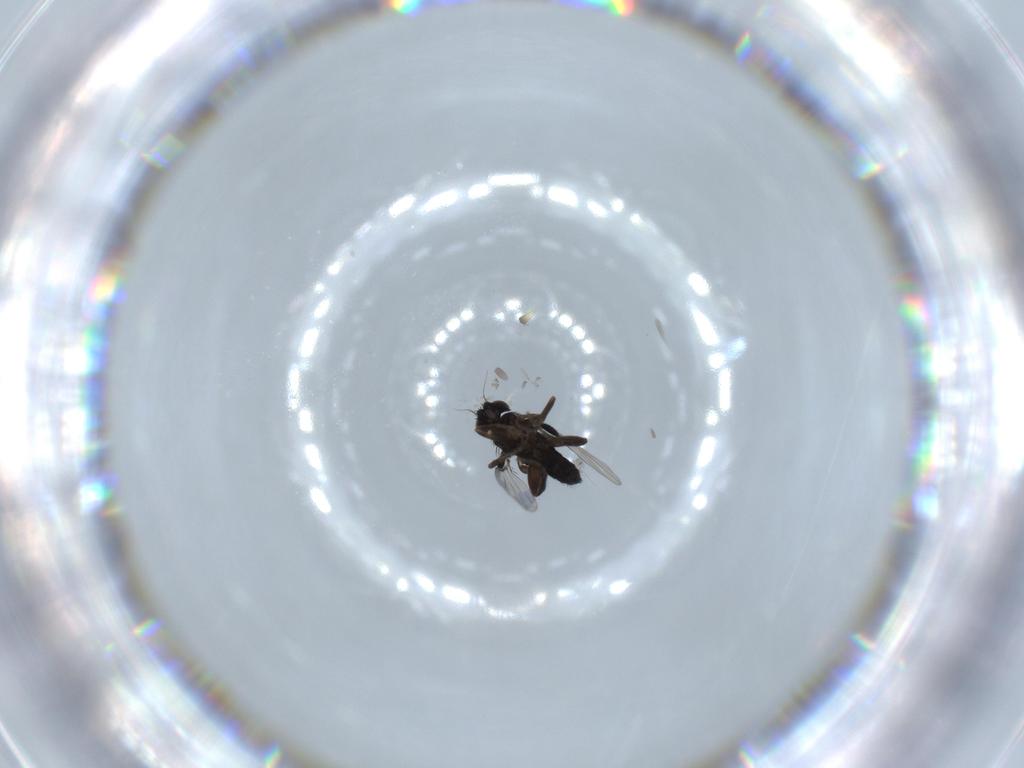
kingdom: Animalia
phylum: Arthropoda
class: Insecta
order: Diptera
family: Phoridae
